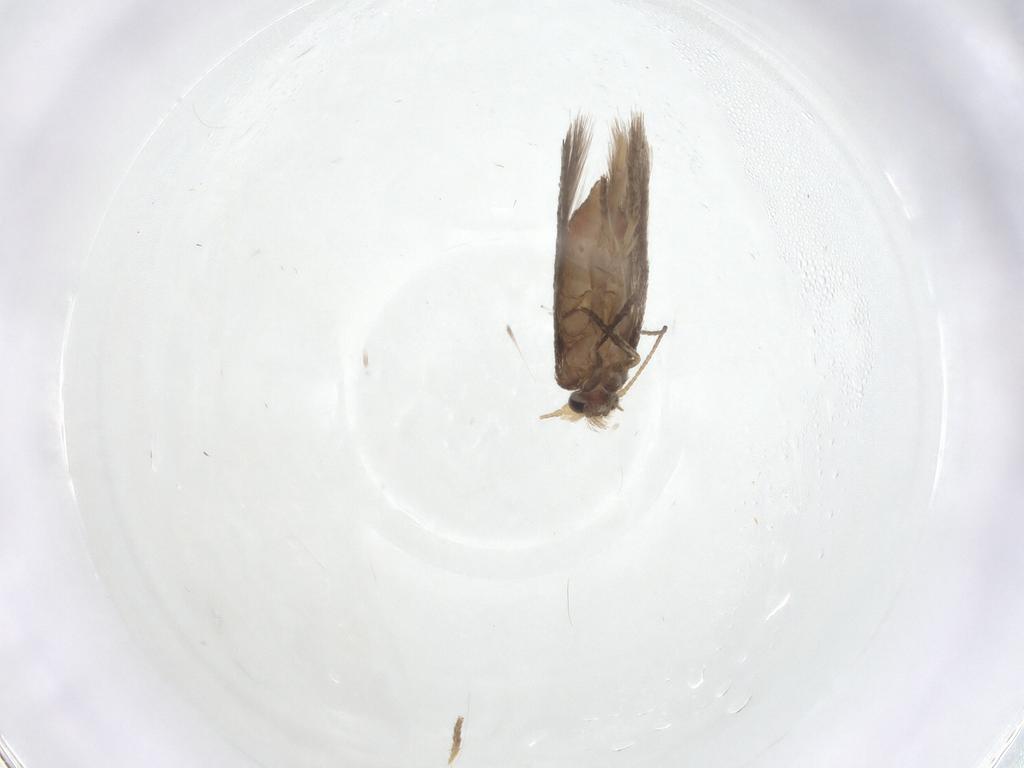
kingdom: Animalia
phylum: Arthropoda
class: Insecta
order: Lepidoptera
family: Nepticulidae
